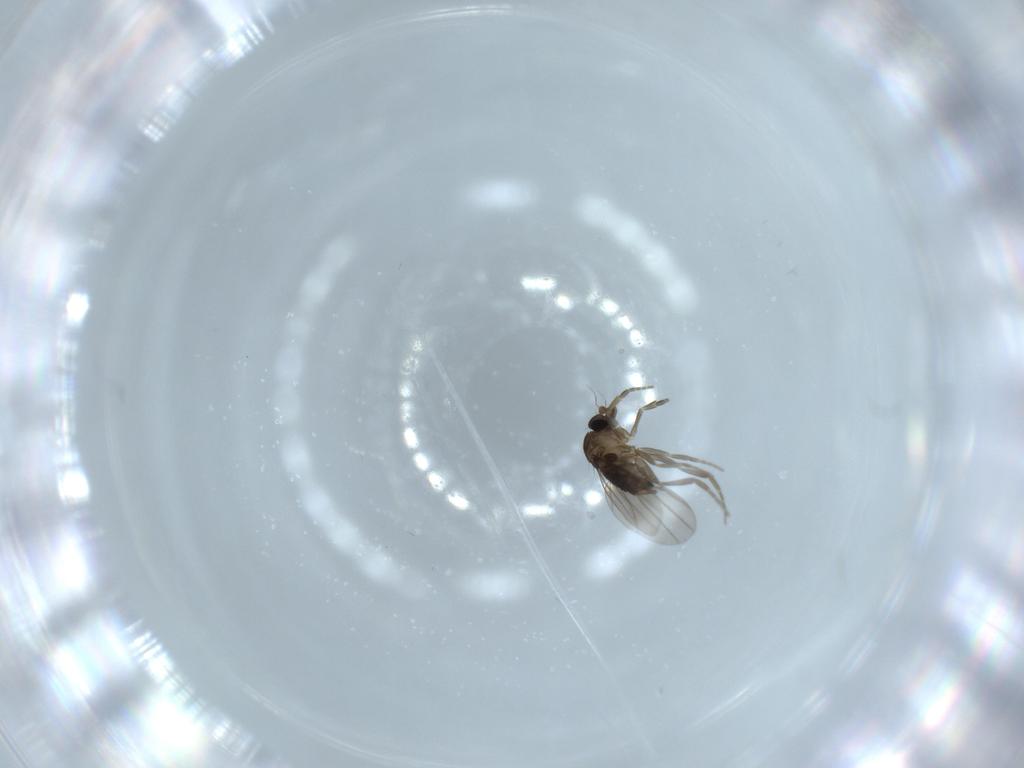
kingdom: Animalia
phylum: Arthropoda
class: Insecta
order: Diptera
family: Phoridae
